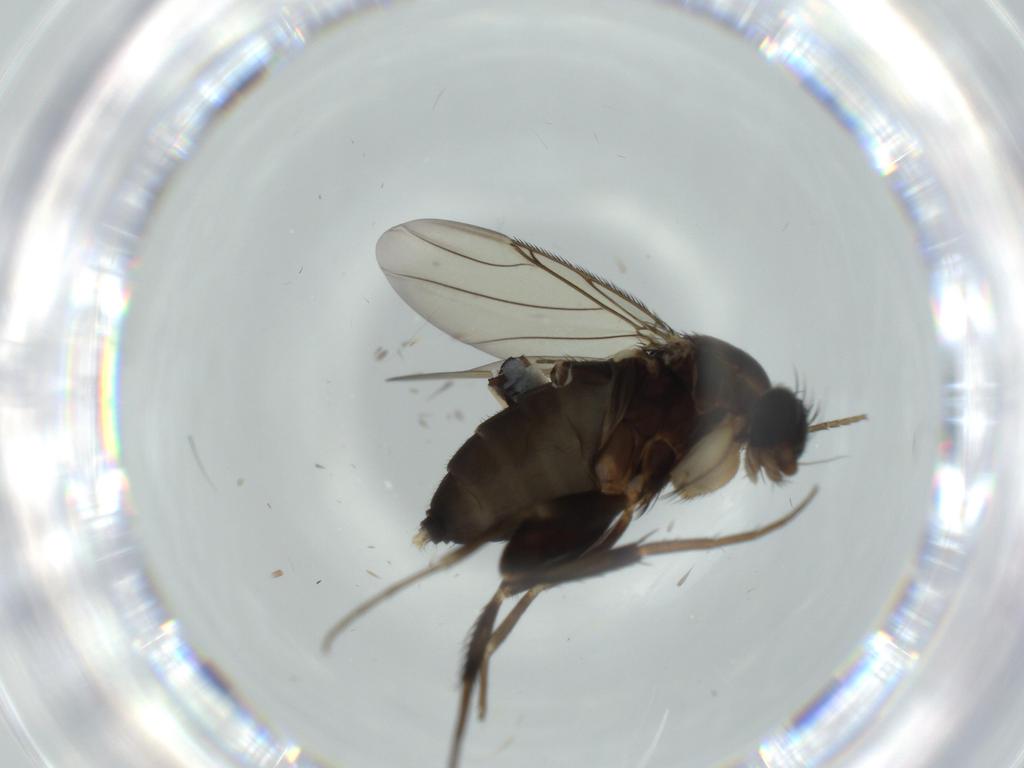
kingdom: Animalia
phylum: Arthropoda
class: Insecta
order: Diptera
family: Phoridae
